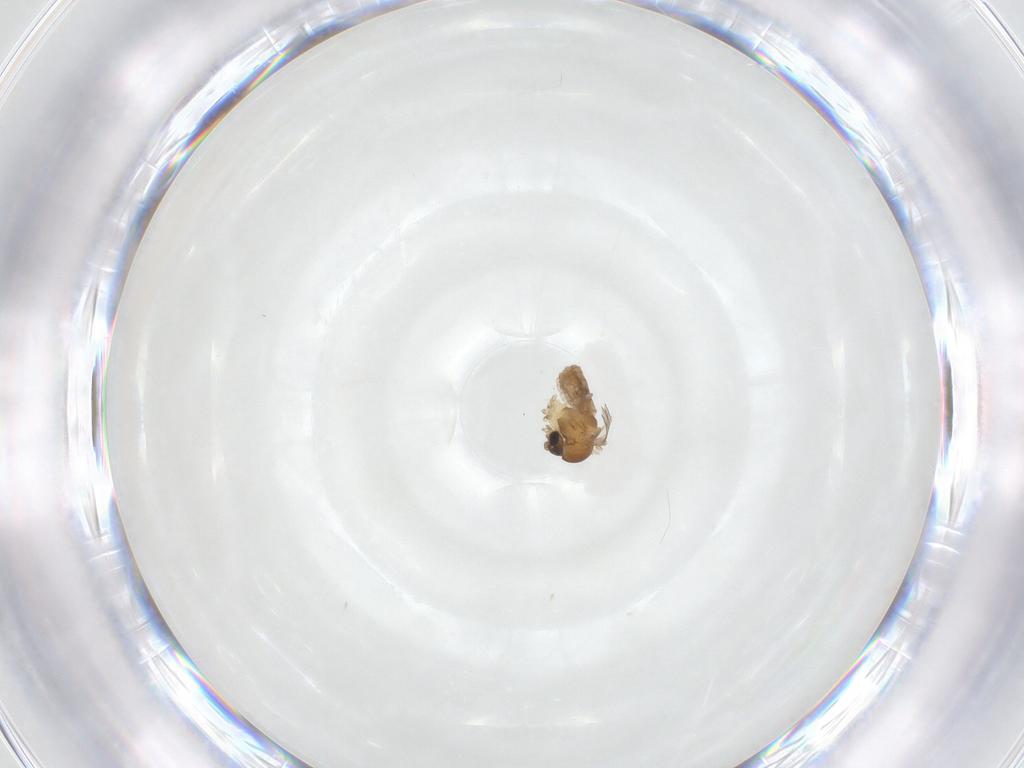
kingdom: Animalia
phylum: Arthropoda
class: Insecta
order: Diptera
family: Psychodidae
